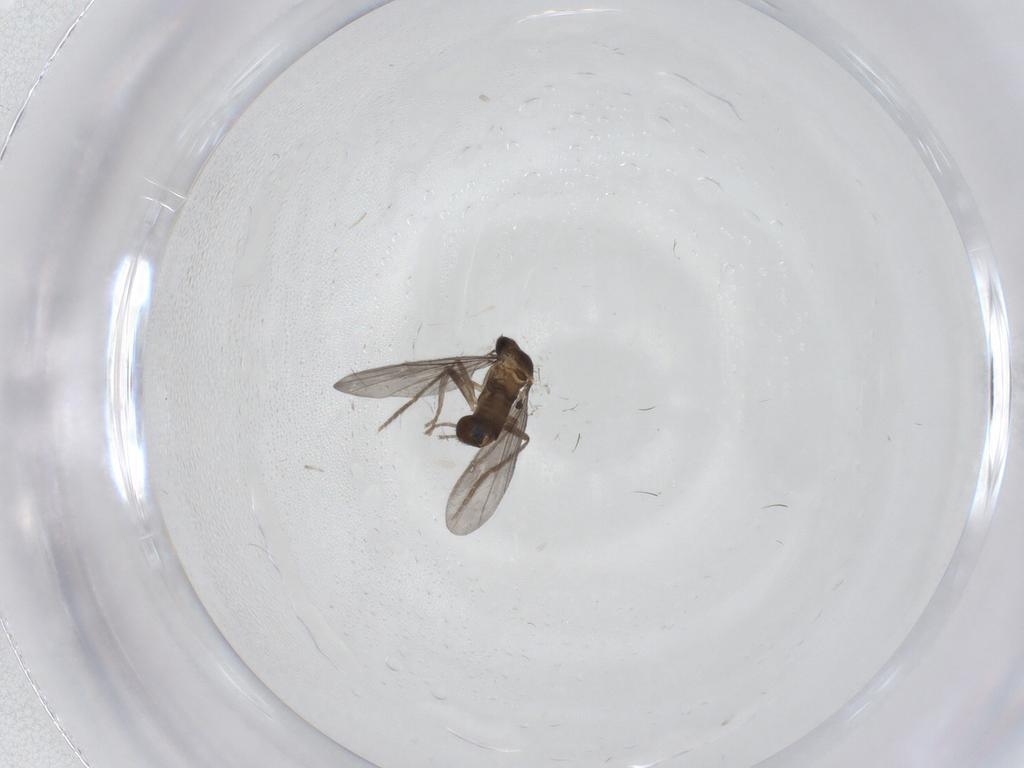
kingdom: Animalia
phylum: Arthropoda
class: Insecta
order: Diptera
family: Phoridae
